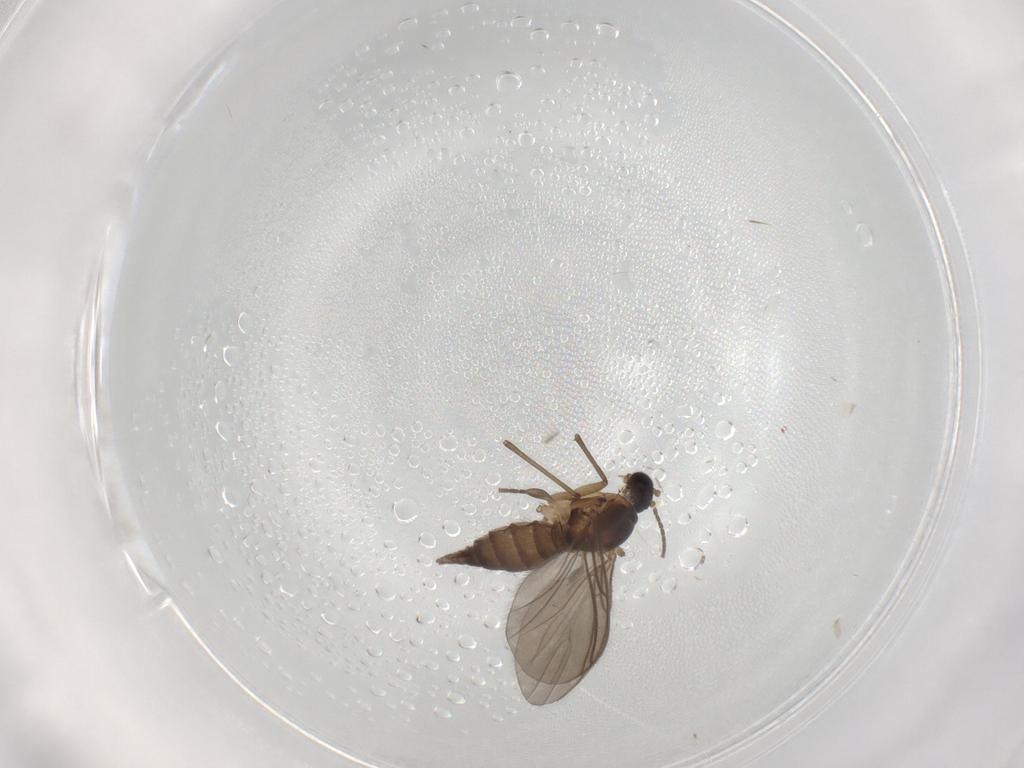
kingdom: Animalia
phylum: Arthropoda
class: Insecta
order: Diptera
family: Sciaridae
